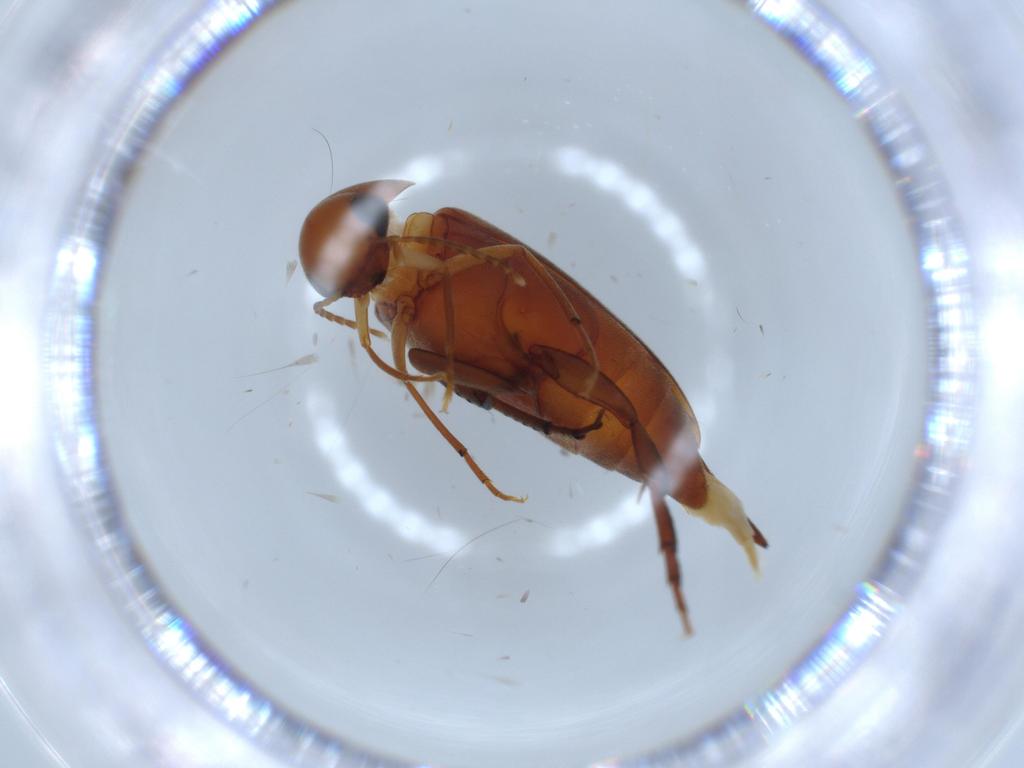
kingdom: Animalia
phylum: Arthropoda
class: Insecta
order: Coleoptera
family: Mordellidae
